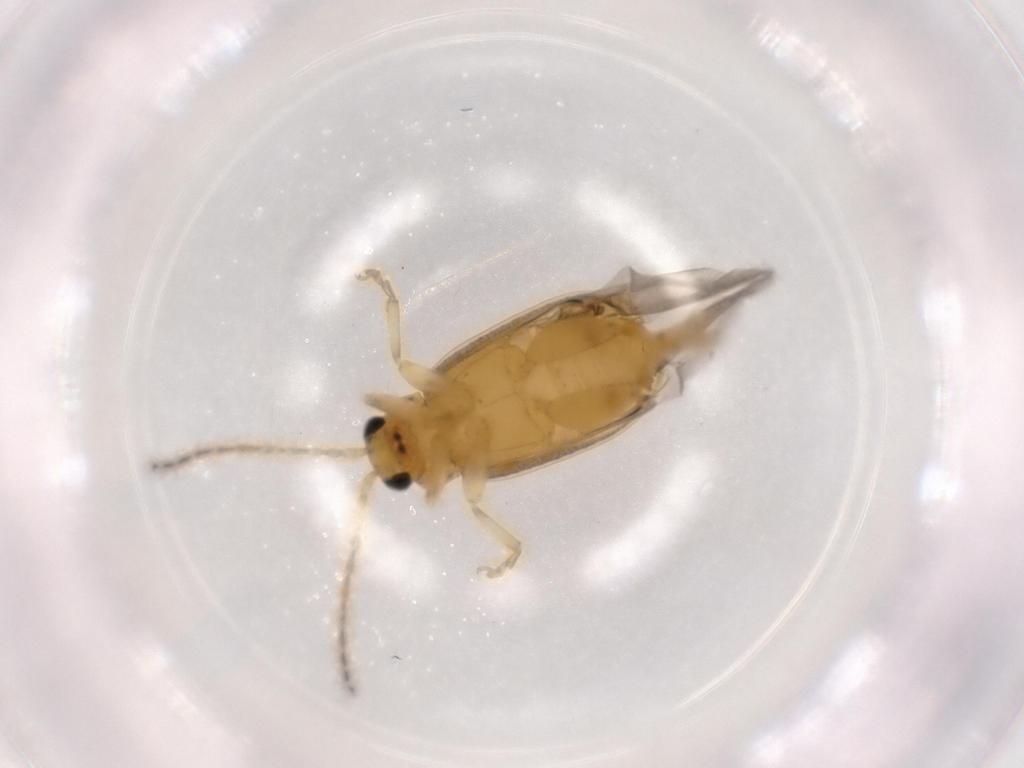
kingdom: Animalia
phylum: Arthropoda
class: Insecta
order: Coleoptera
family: Chrysomelidae
